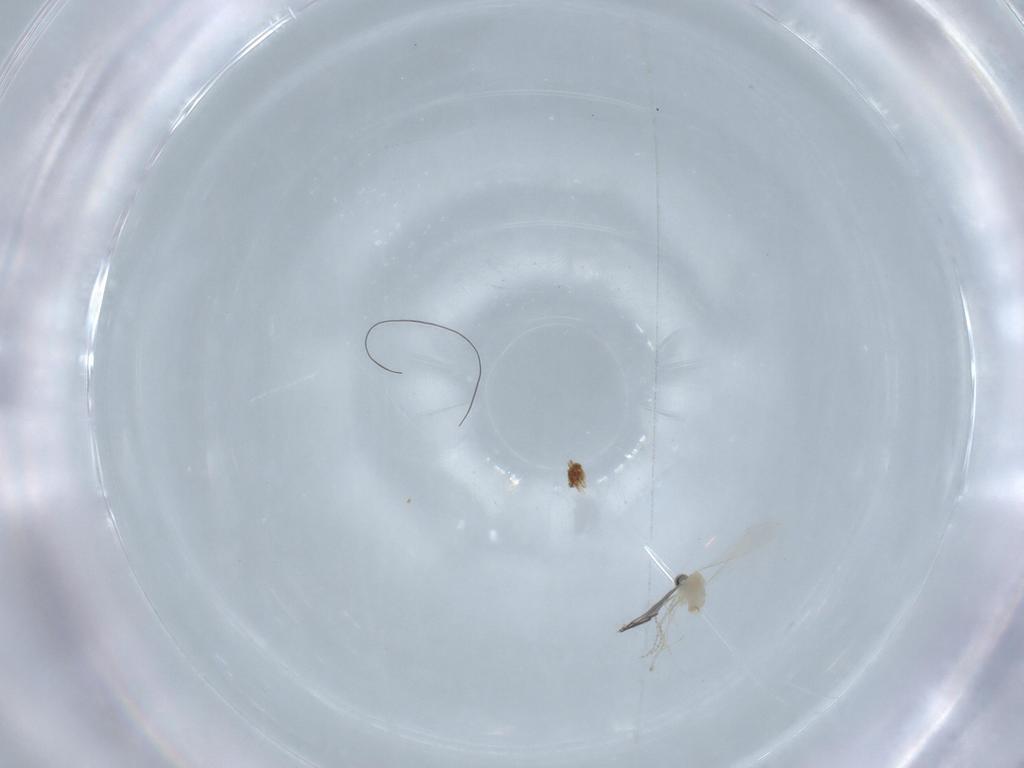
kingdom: Animalia
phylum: Arthropoda
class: Insecta
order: Diptera
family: Cecidomyiidae
